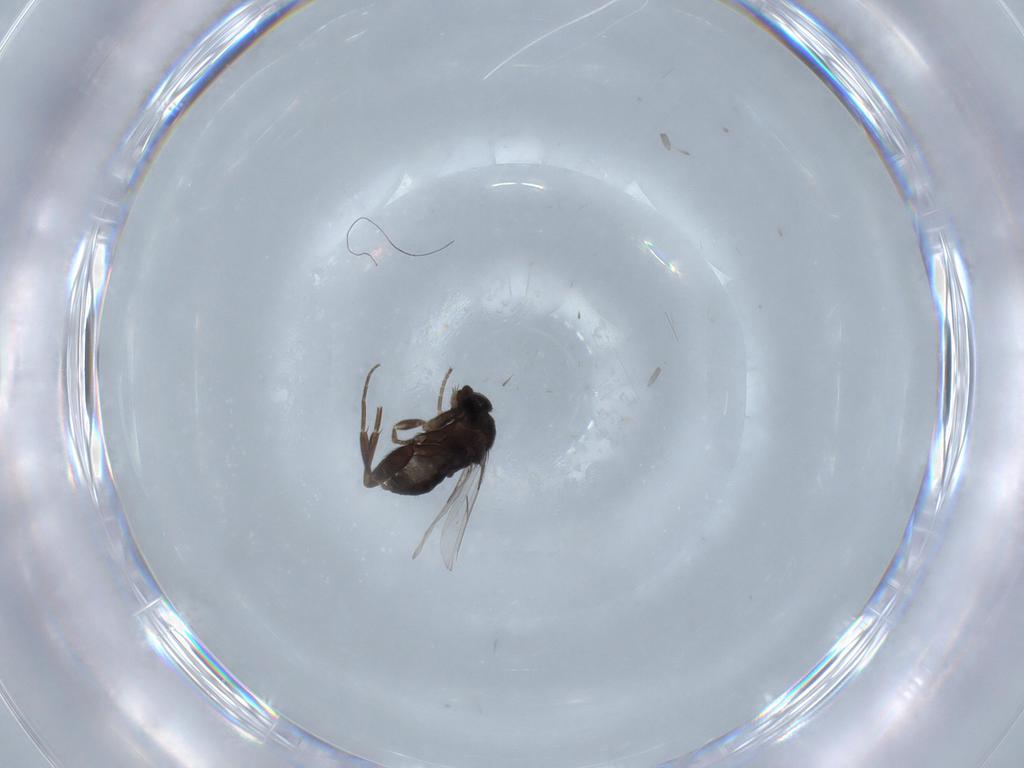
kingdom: Animalia
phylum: Arthropoda
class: Insecta
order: Diptera
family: Phoridae
